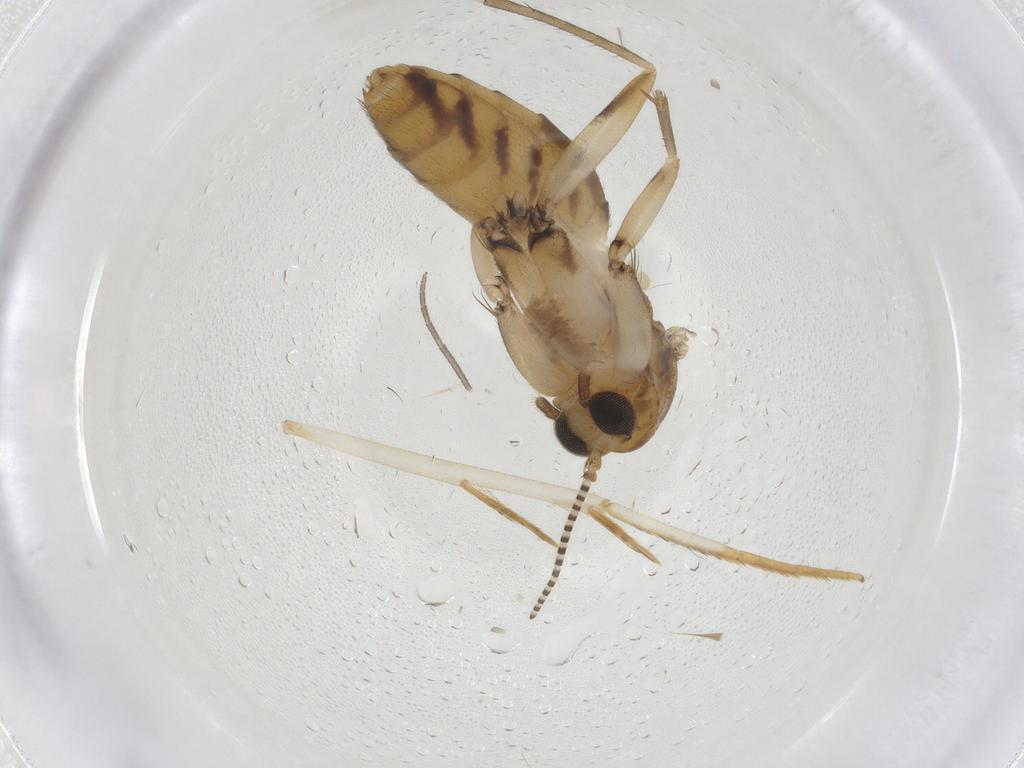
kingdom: Animalia
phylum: Arthropoda
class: Insecta
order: Diptera
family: Mycetophilidae
